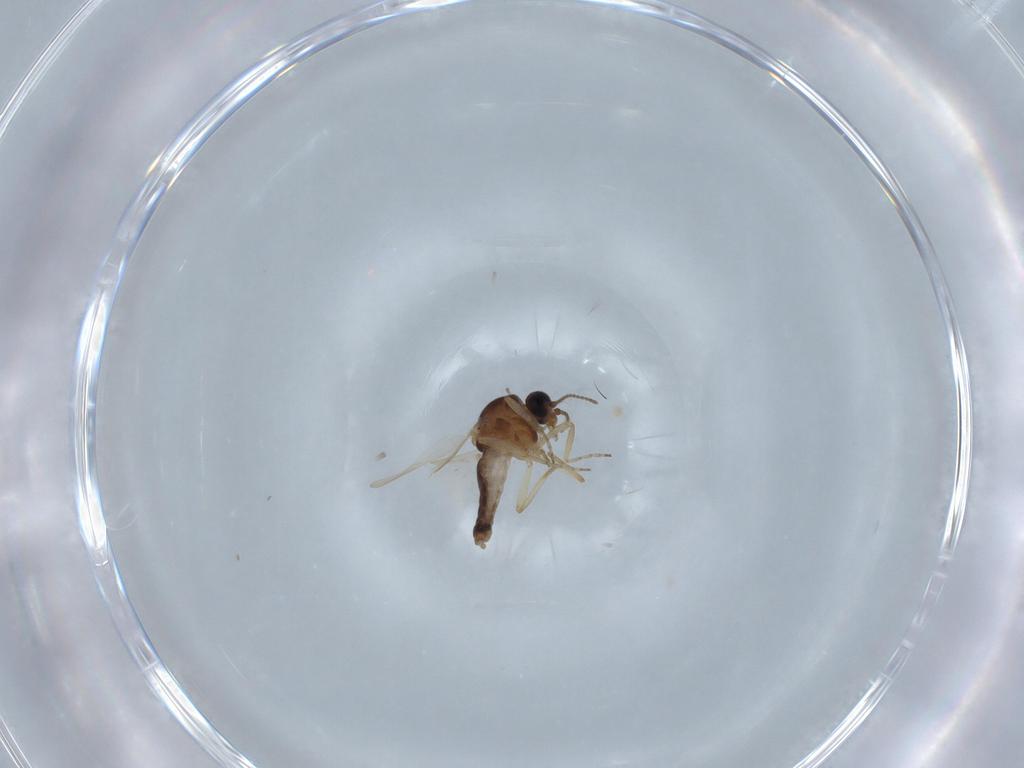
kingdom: Animalia
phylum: Arthropoda
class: Insecta
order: Diptera
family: Ceratopogonidae
